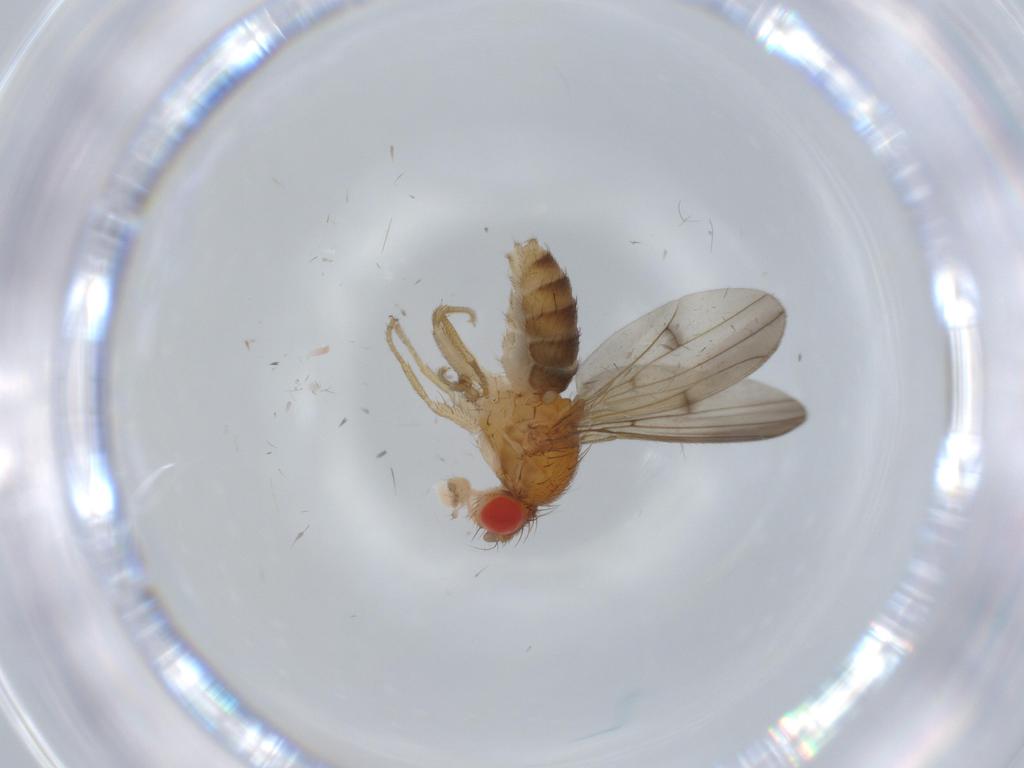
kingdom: Animalia
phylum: Arthropoda
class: Insecta
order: Diptera
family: Drosophilidae
